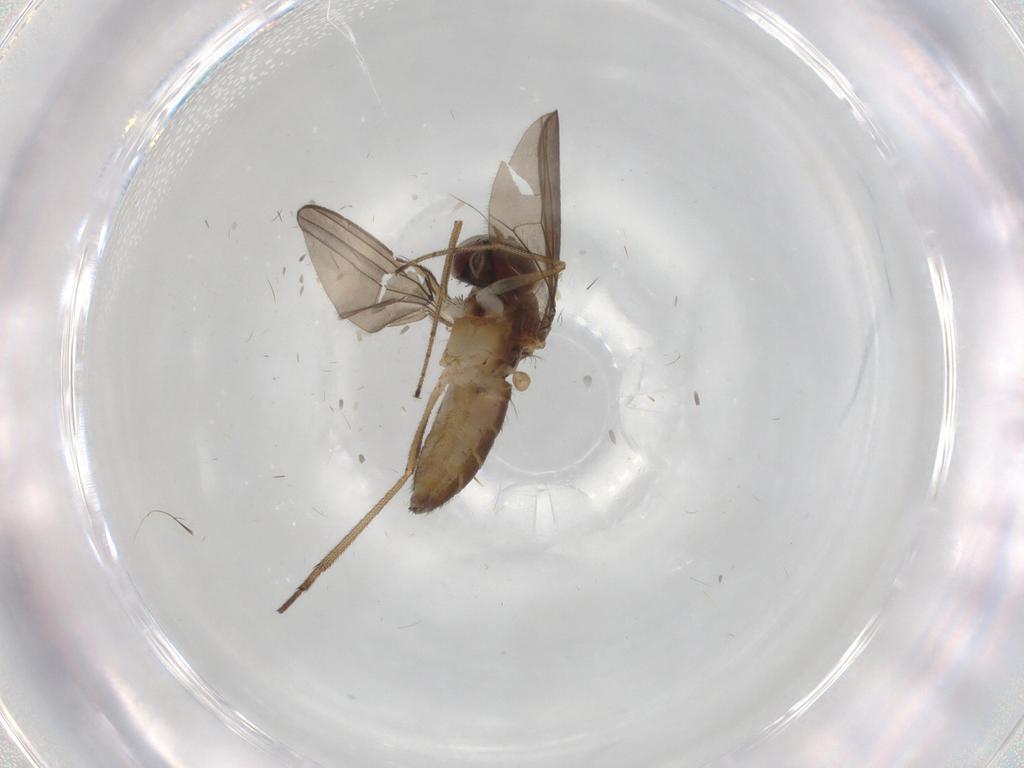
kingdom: Animalia
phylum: Arthropoda
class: Insecta
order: Diptera
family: Dolichopodidae
